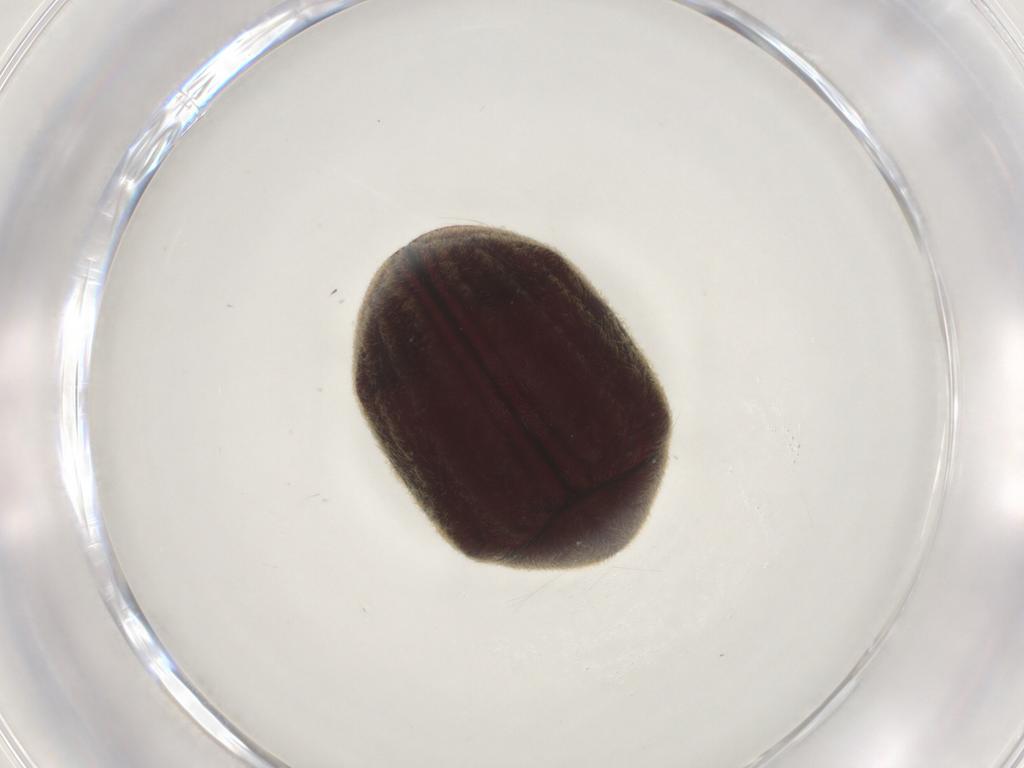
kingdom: Animalia
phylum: Arthropoda
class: Insecta
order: Coleoptera
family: Ptinidae
